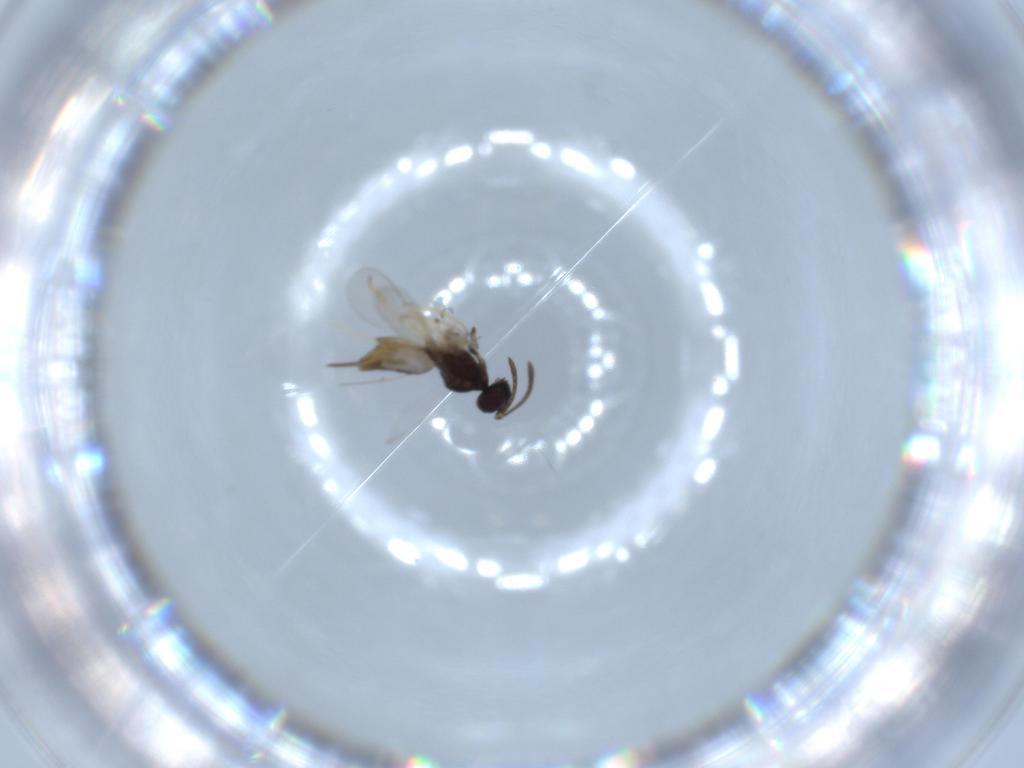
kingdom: Animalia
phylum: Arthropoda
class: Insecta
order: Hymenoptera
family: Eupelmidae
